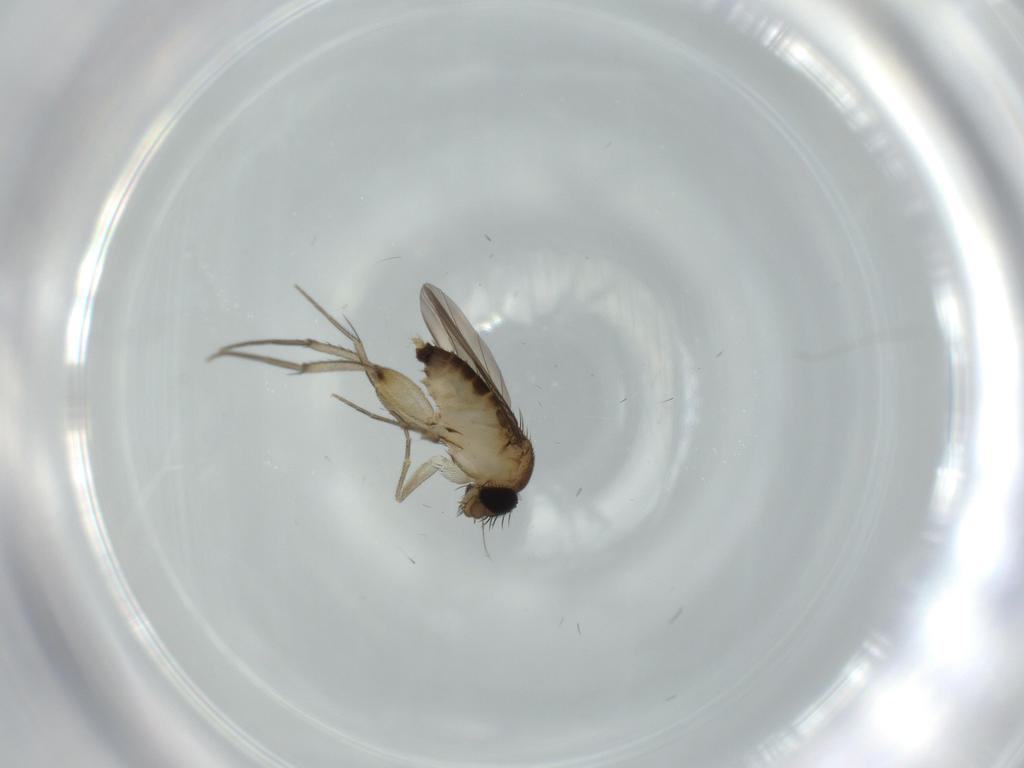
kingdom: Animalia
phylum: Arthropoda
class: Insecta
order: Diptera
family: Phoridae
